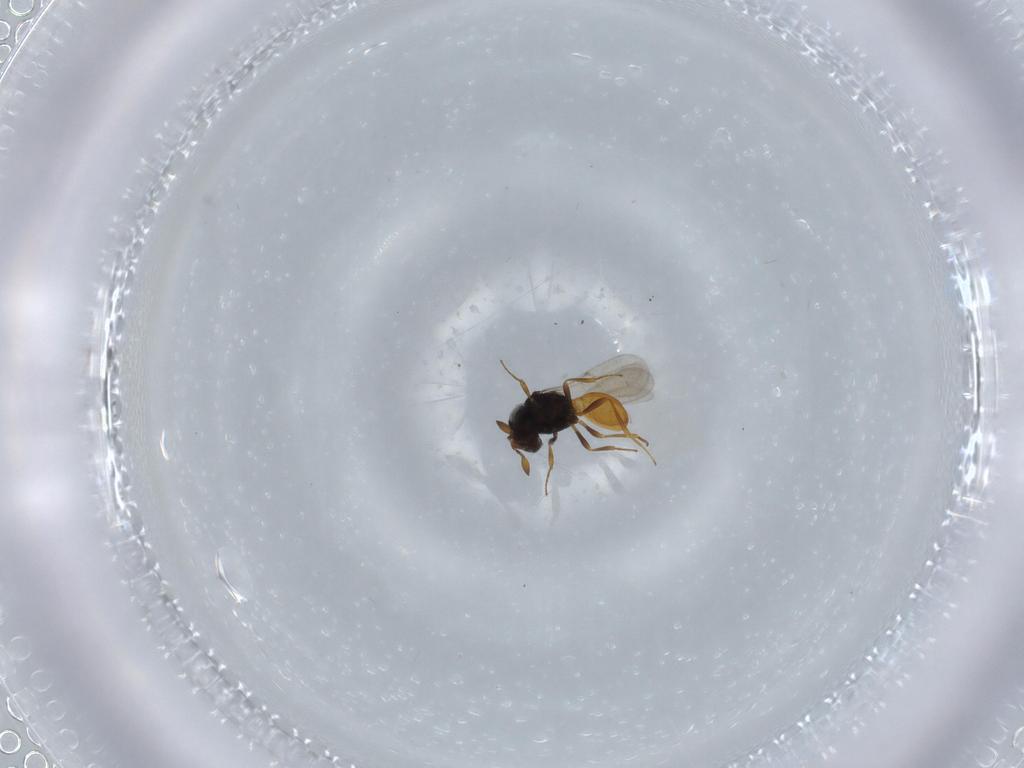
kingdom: Animalia
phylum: Arthropoda
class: Insecta
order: Hymenoptera
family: Scelionidae
